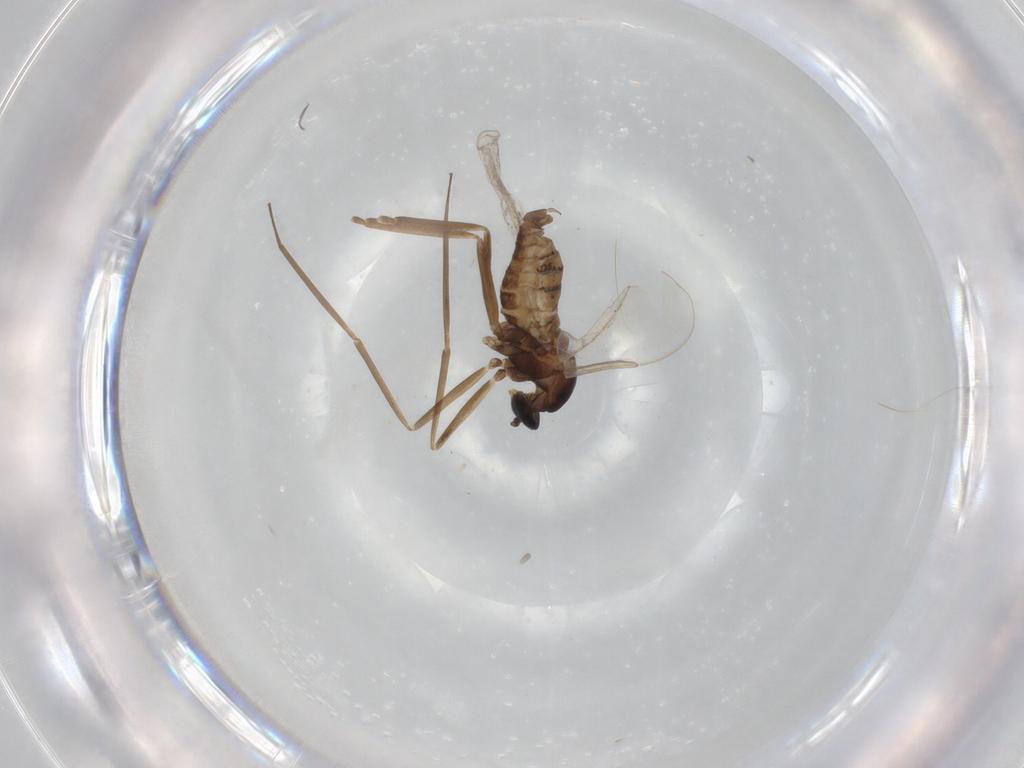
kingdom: Animalia
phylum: Arthropoda
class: Insecta
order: Diptera
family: Cecidomyiidae
